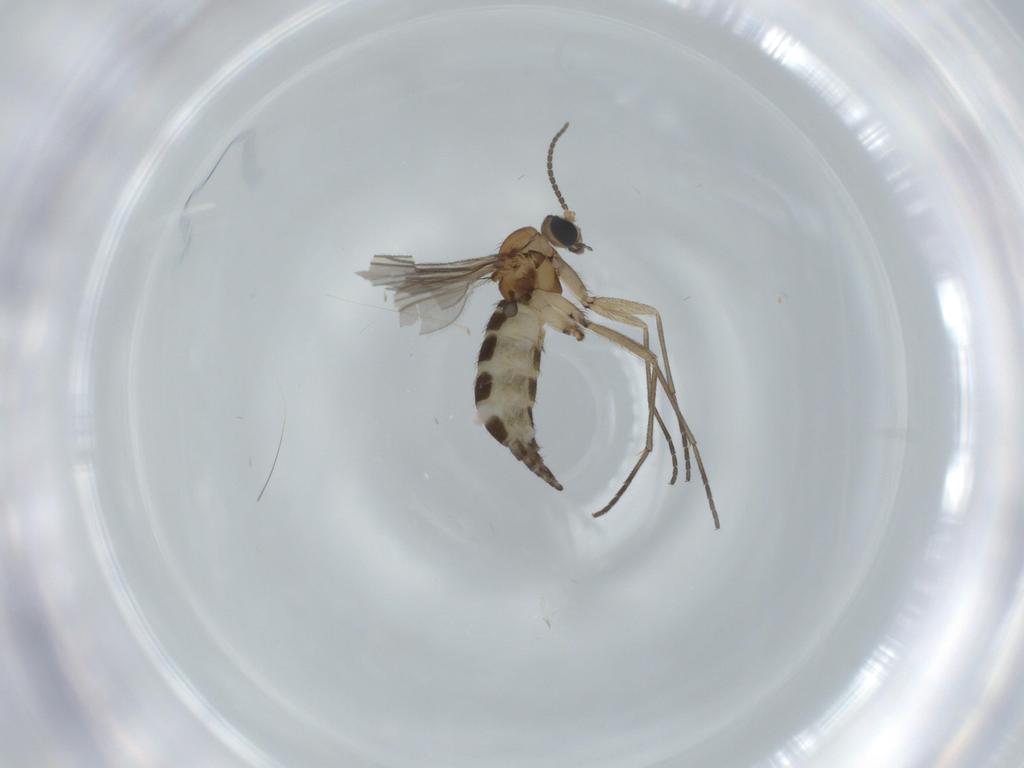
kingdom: Animalia
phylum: Arthropoda
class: Insecta
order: Diptera
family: Sciaridae
